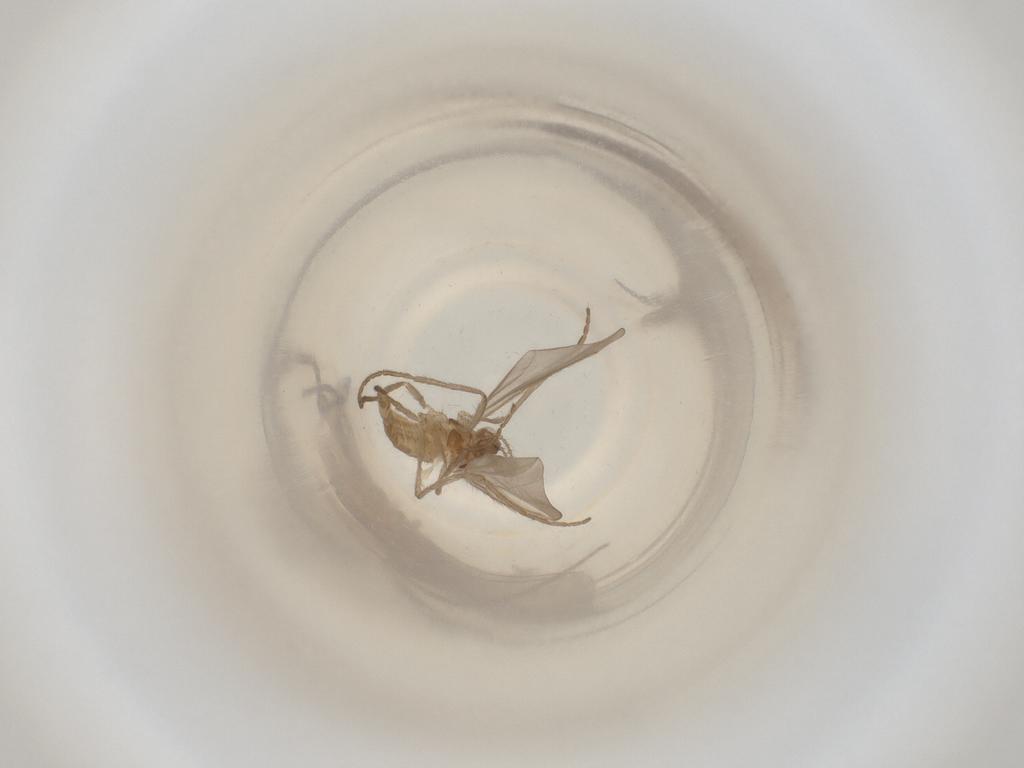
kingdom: Animalia
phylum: Arthropoda
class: Insecta
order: Diptera
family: Cecidomyiidae
